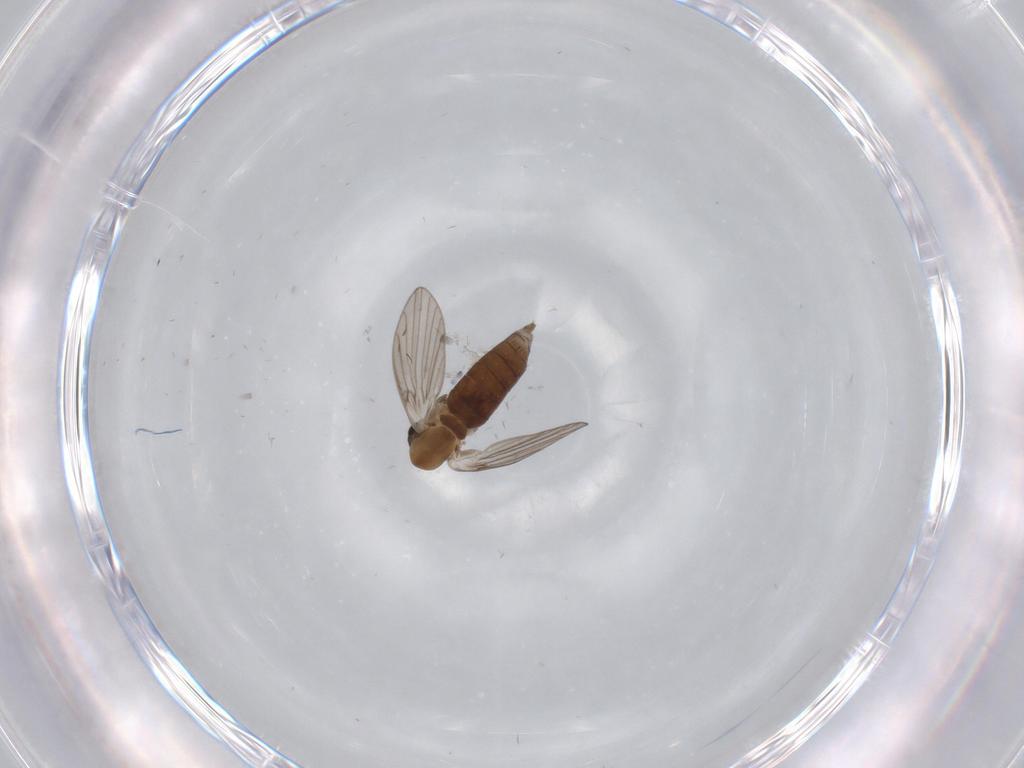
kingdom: Animalia
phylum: Arthropoda
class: Insecta
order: Diptera
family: Psychodidae
